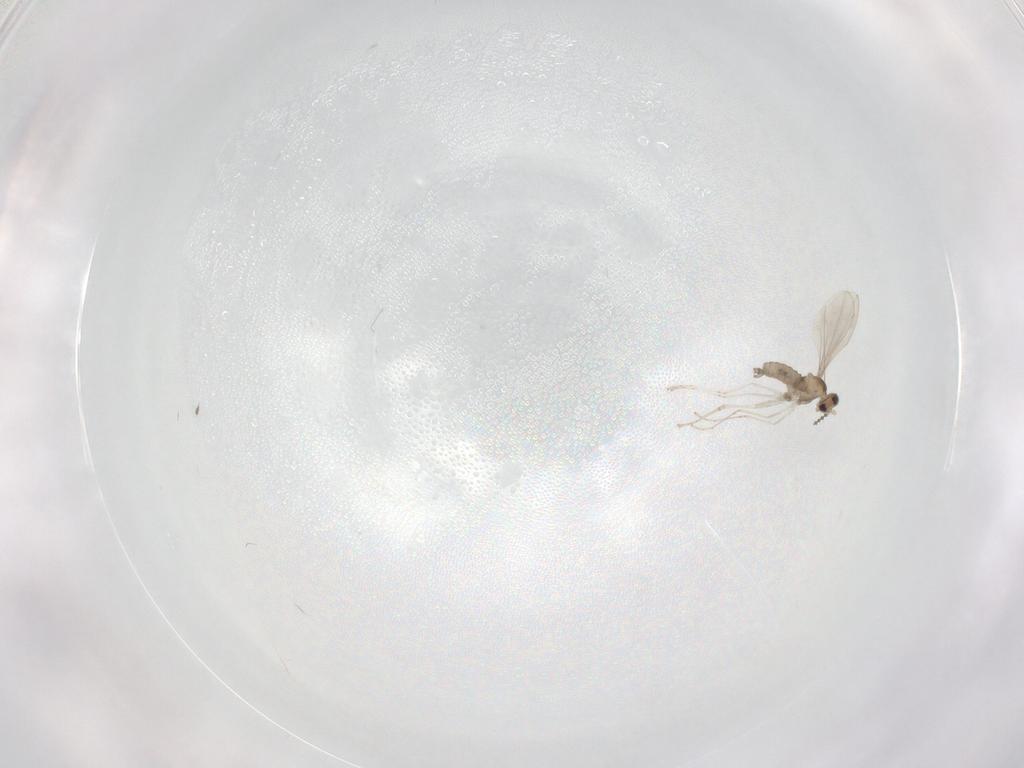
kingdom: Animalia
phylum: Arthropoda
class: Insecta
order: Diptera
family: Cecidomyiidae
